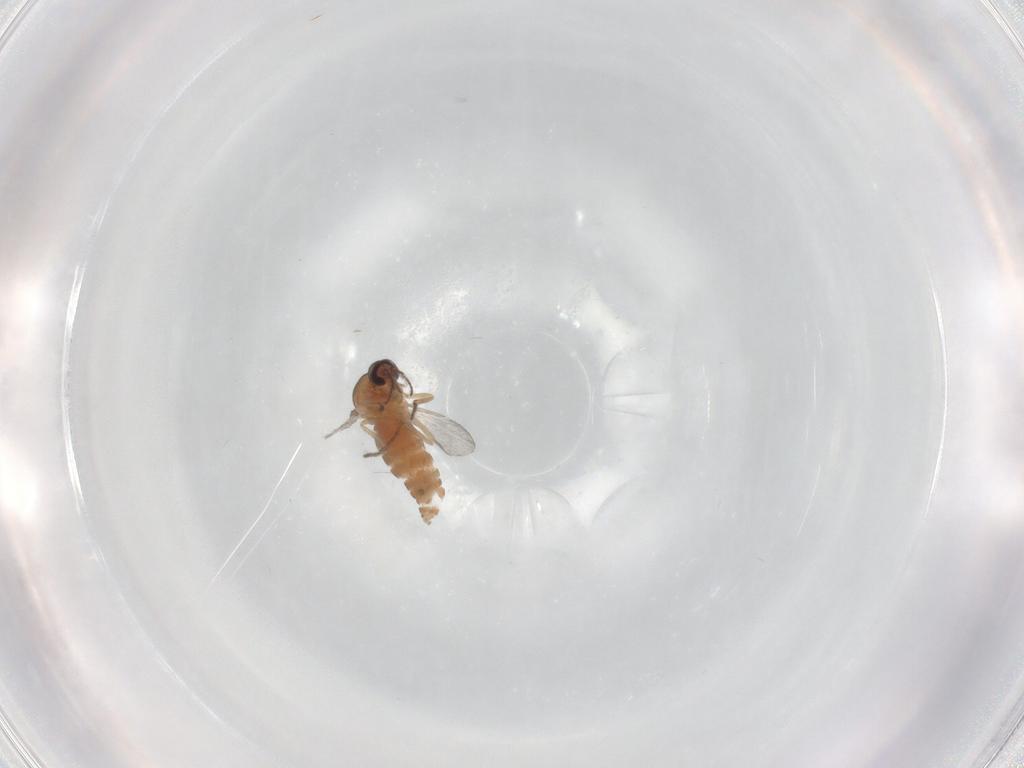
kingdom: Animalia
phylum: Arthropoda
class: Insecta
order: Diptera
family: Ceratopogonidae
